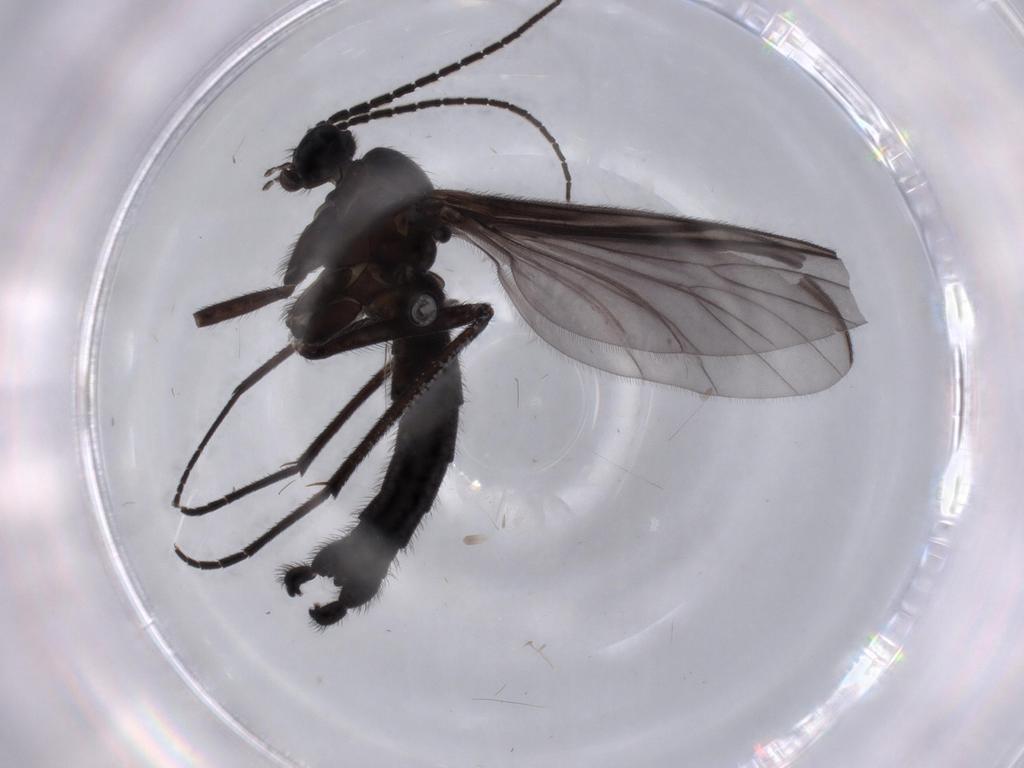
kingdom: Animalia
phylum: Arthropoda
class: Insecta
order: Diptera
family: Sciaridae
